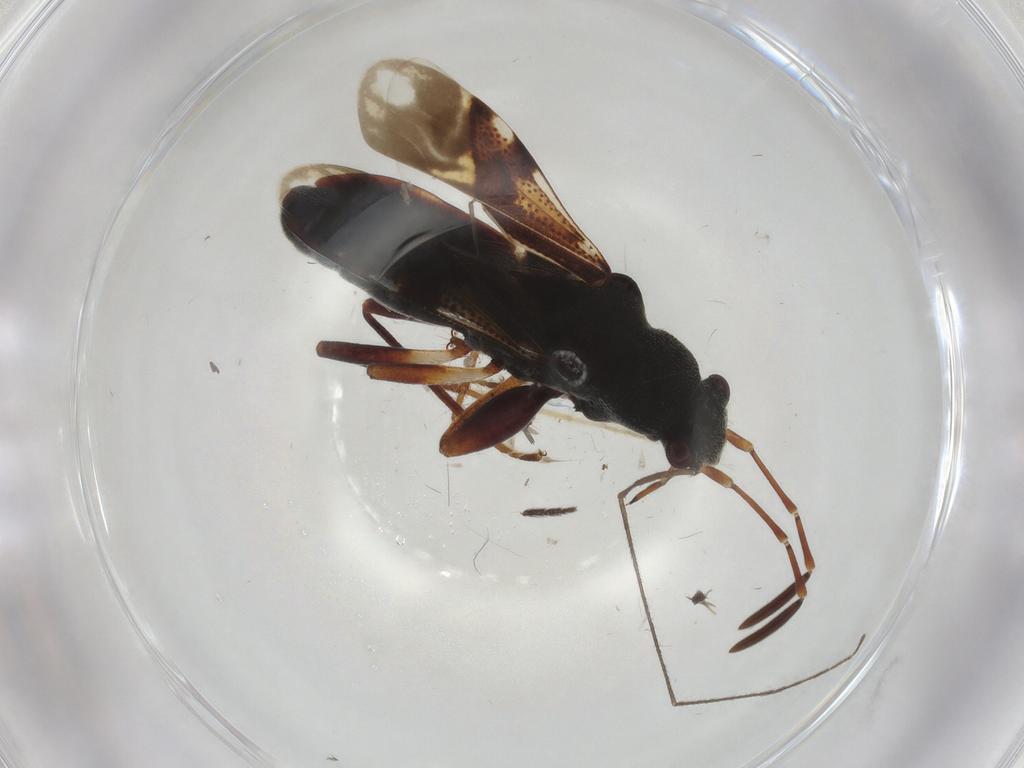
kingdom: Animalia
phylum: Arthropoda
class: Insecta
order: Hemiptera
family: Rhyparochromidae
